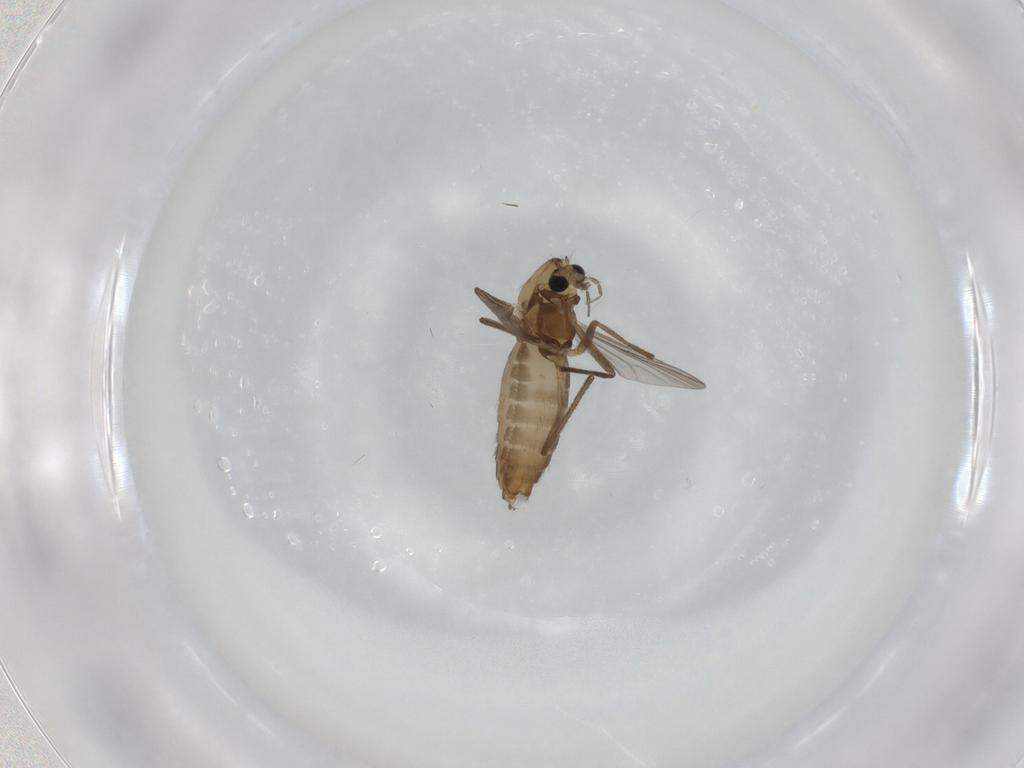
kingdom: Animalia
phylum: Arthropoda
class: Insecta
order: Diptera
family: Chironomidae
